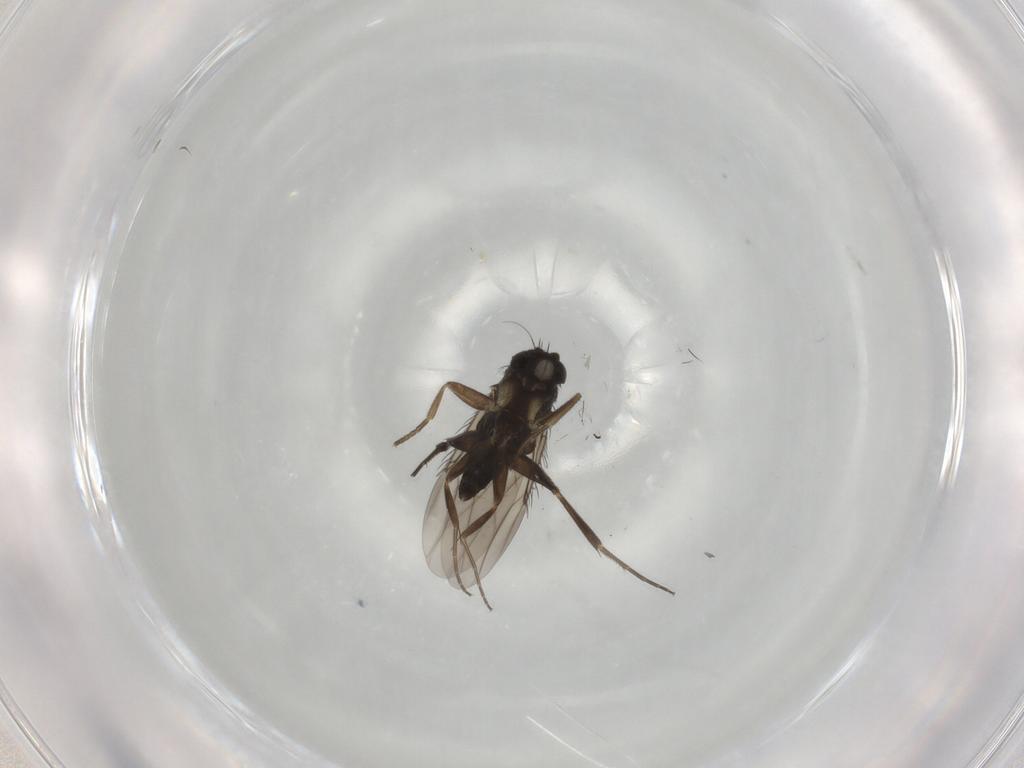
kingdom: Animalia
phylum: Arthropoda
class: Insecta
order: Diptera
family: Phoridae
